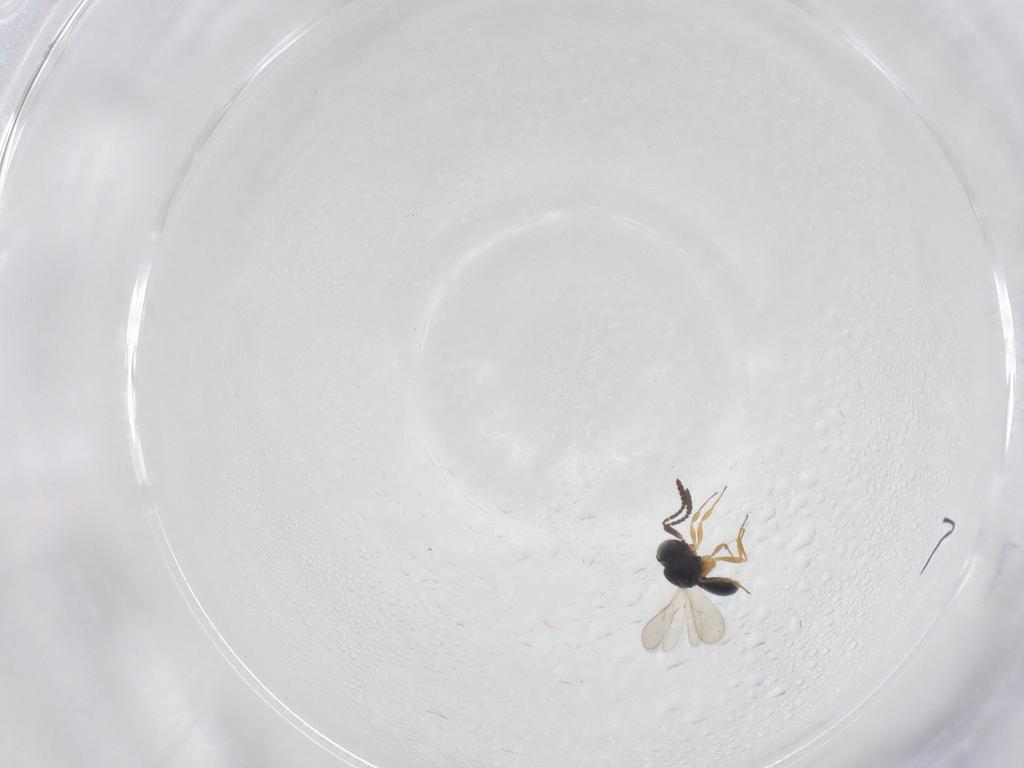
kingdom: Animalia
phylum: Arthropoda
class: Insecta
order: Hymenoptera
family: Scelionidae
